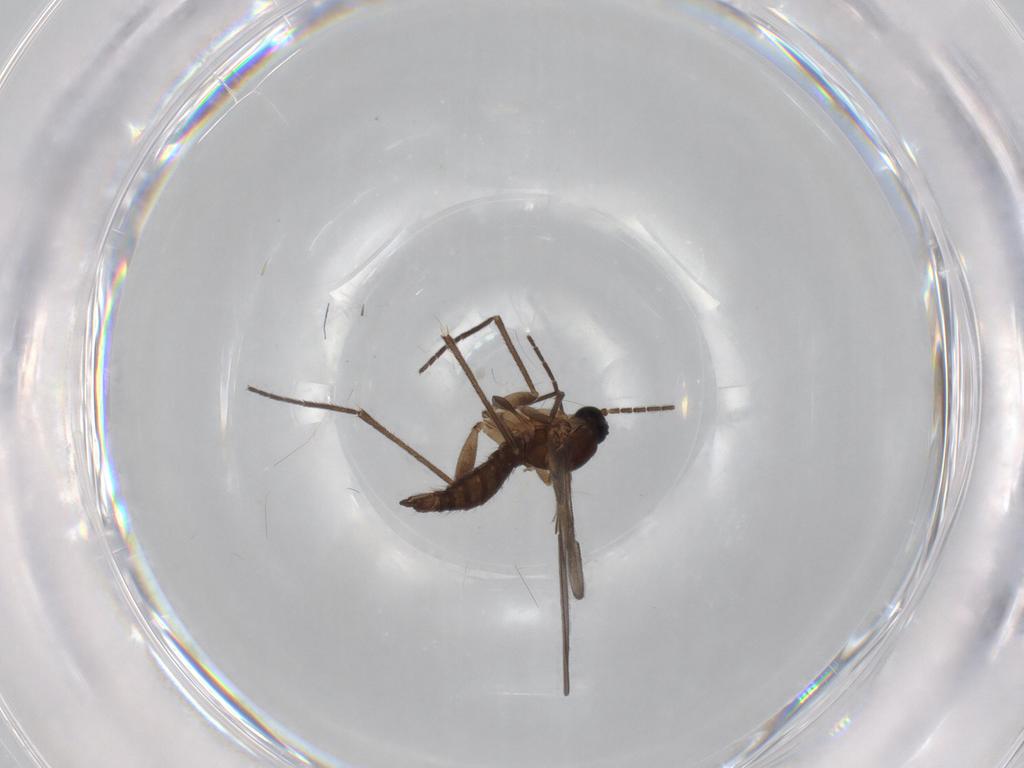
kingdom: Animalia
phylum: Arthropoda
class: Insecta
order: Diptera
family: Sciaridae
